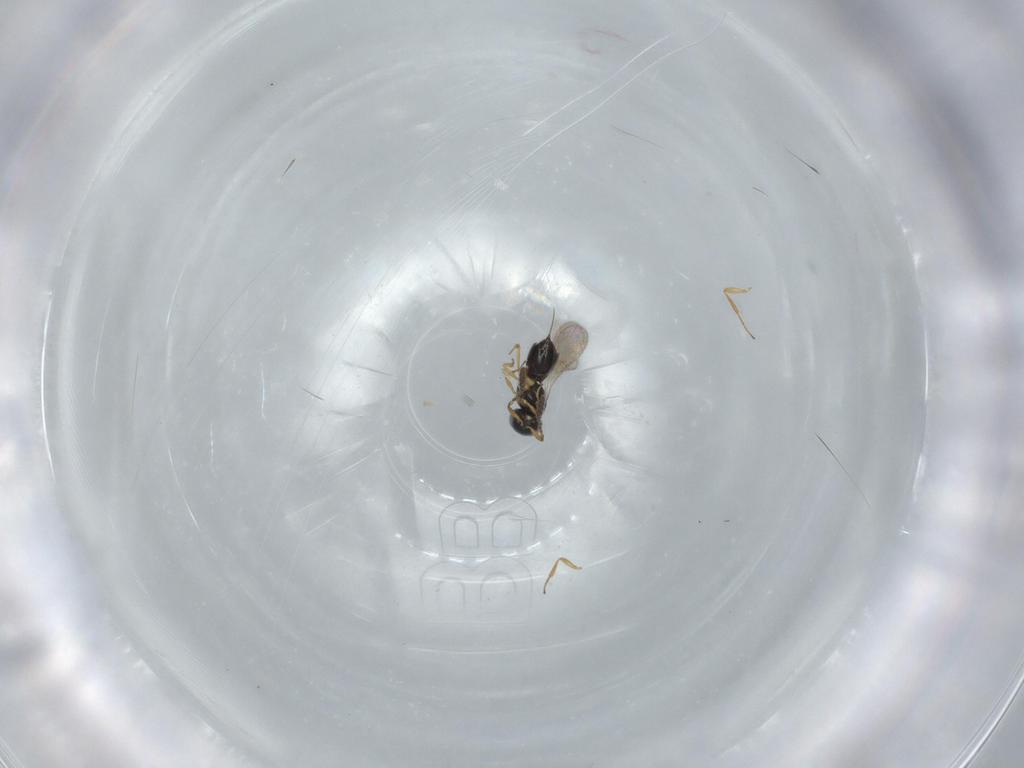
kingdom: Animalia
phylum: Arthropoda
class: Insecta
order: Hymenoptera
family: Scelionidae
